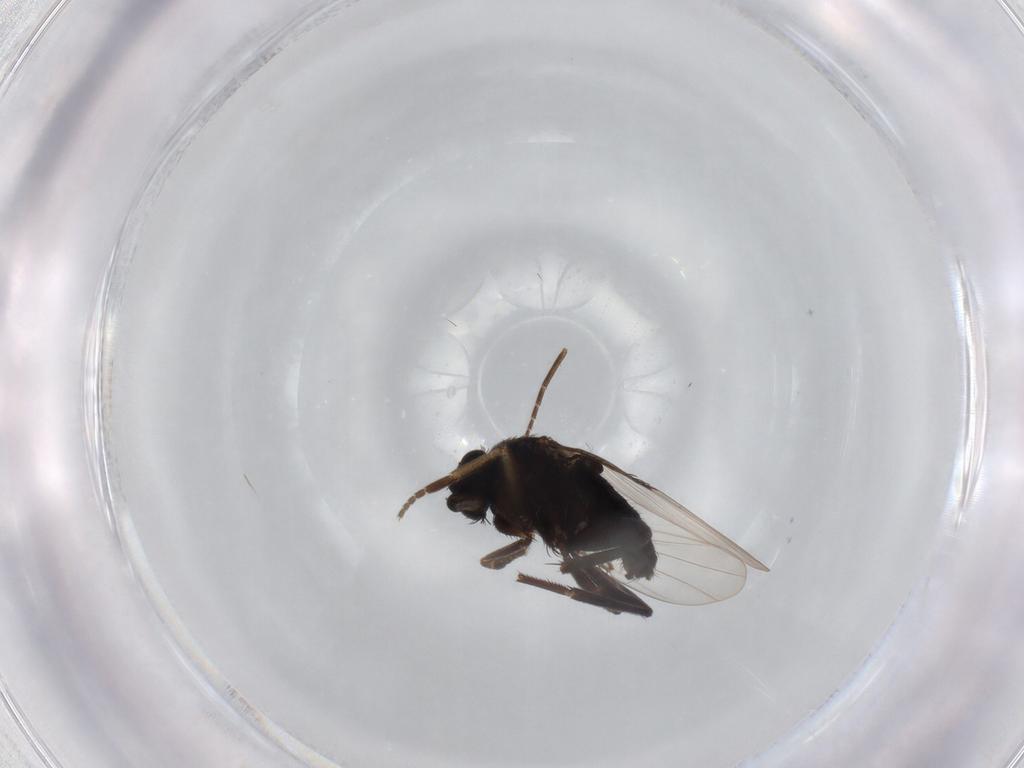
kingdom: Animalia
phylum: Arthropoda
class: Insecta
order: Diptera
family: Phoridae
